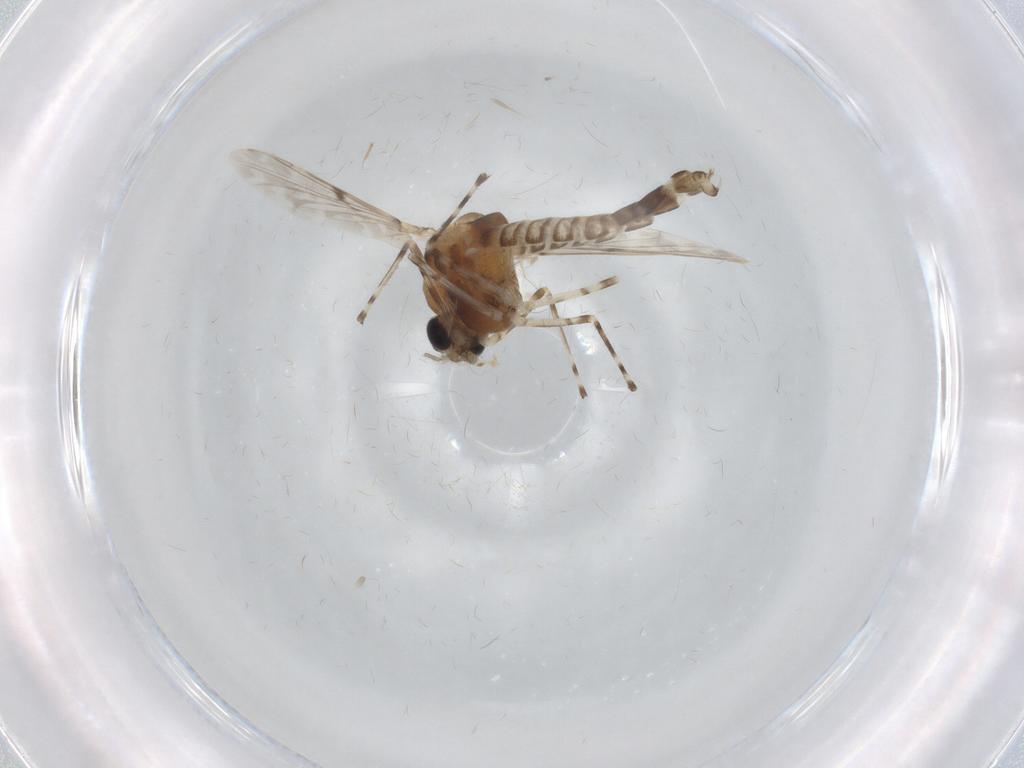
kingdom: Animalia
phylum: Arthropoda
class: Insecta
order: Diptera
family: Chironomidae
